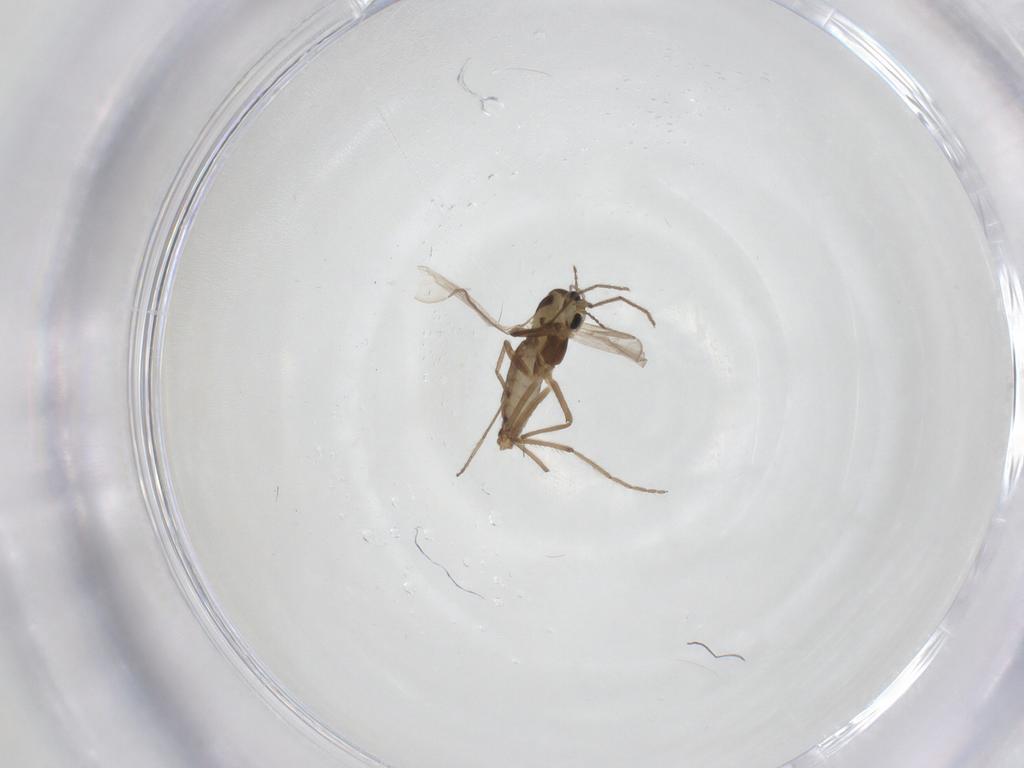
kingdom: Animalia
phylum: Arthropoda
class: Insecta
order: Diptera
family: Chironomidae
